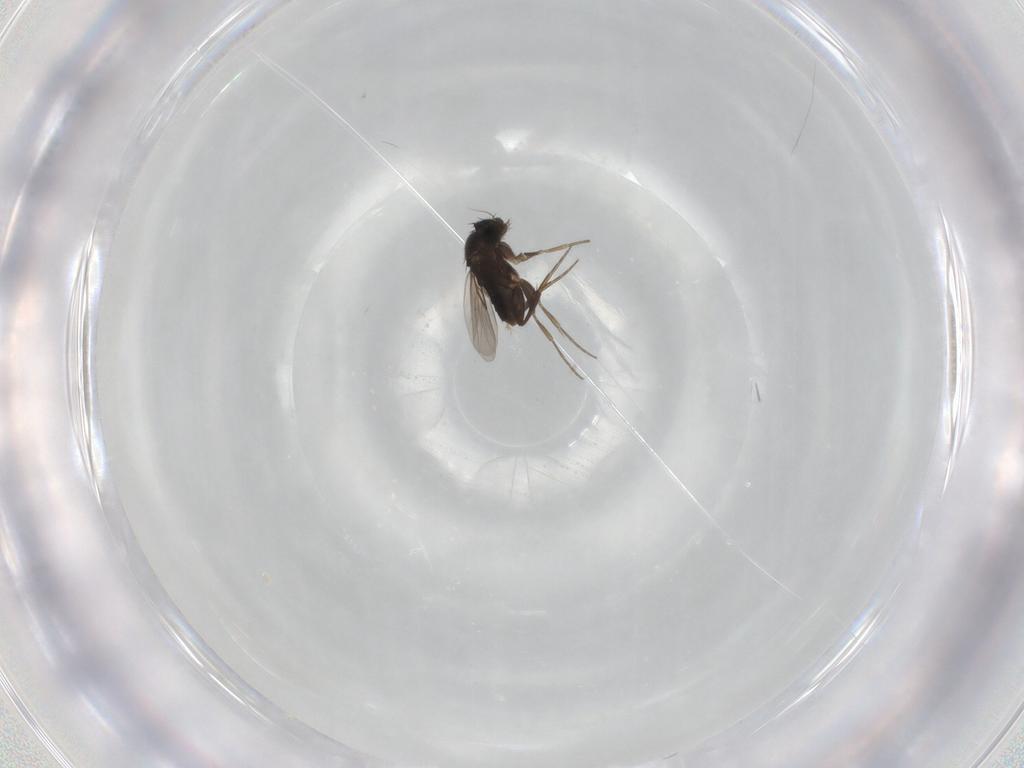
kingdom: Animalia
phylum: Arthropoda
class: Insecta
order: Diptera
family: Phoridae
